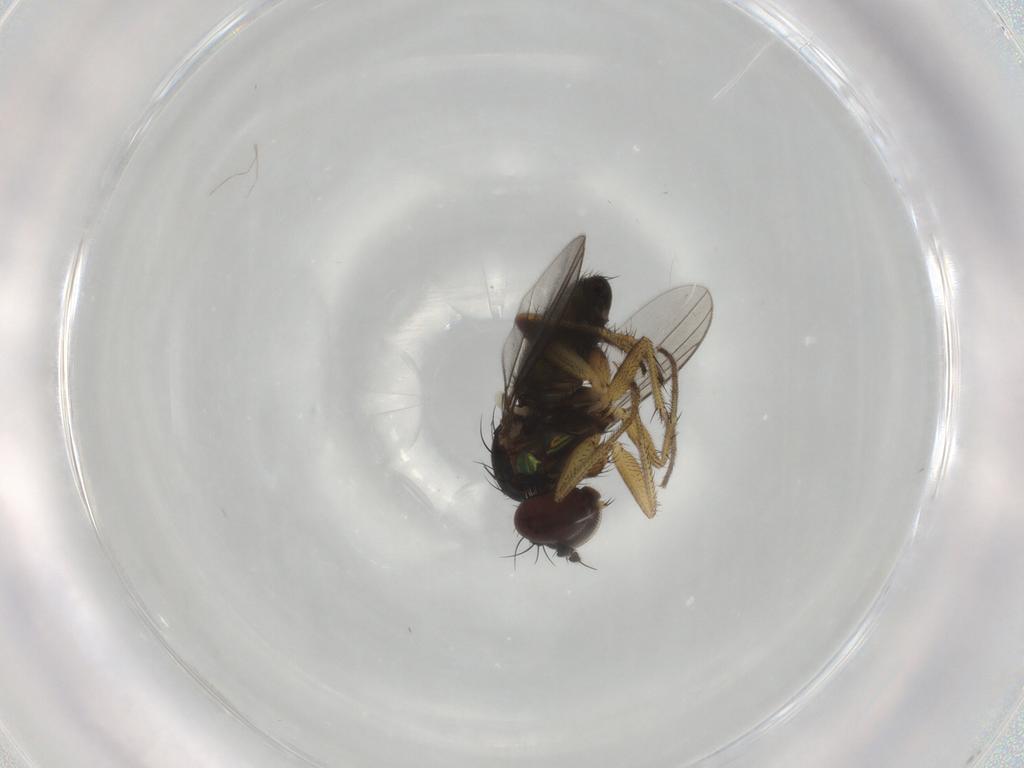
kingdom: Animalia
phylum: Arthropoda
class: Insecta
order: Diptera
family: Dolichopodidae
